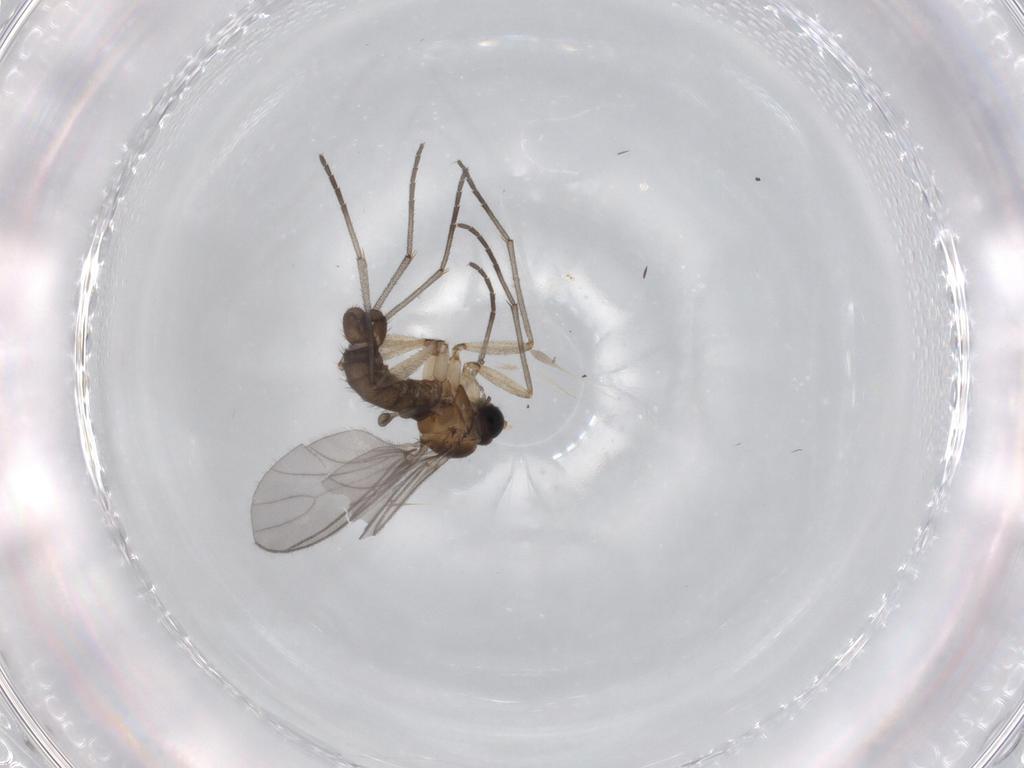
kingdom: Animalia
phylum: Arthropoda
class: Insecta
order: Diptera
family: Sciaridae
